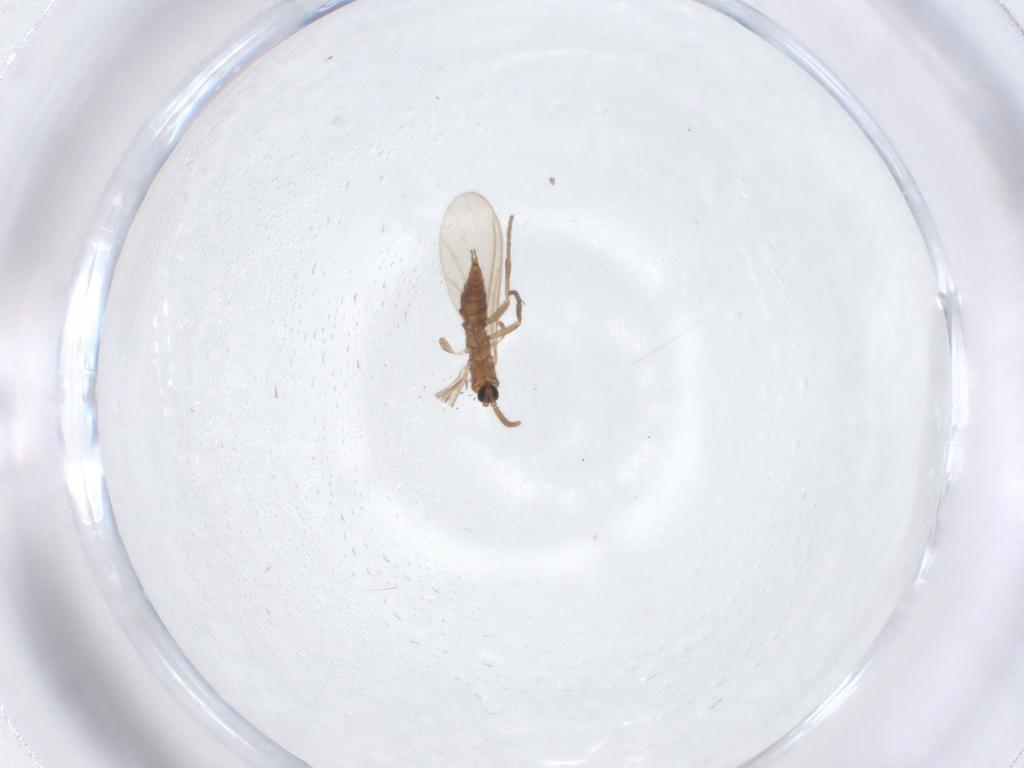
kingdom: Animalia
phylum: Arthropoda
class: Insecta
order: Diptera
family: Sciaridae
